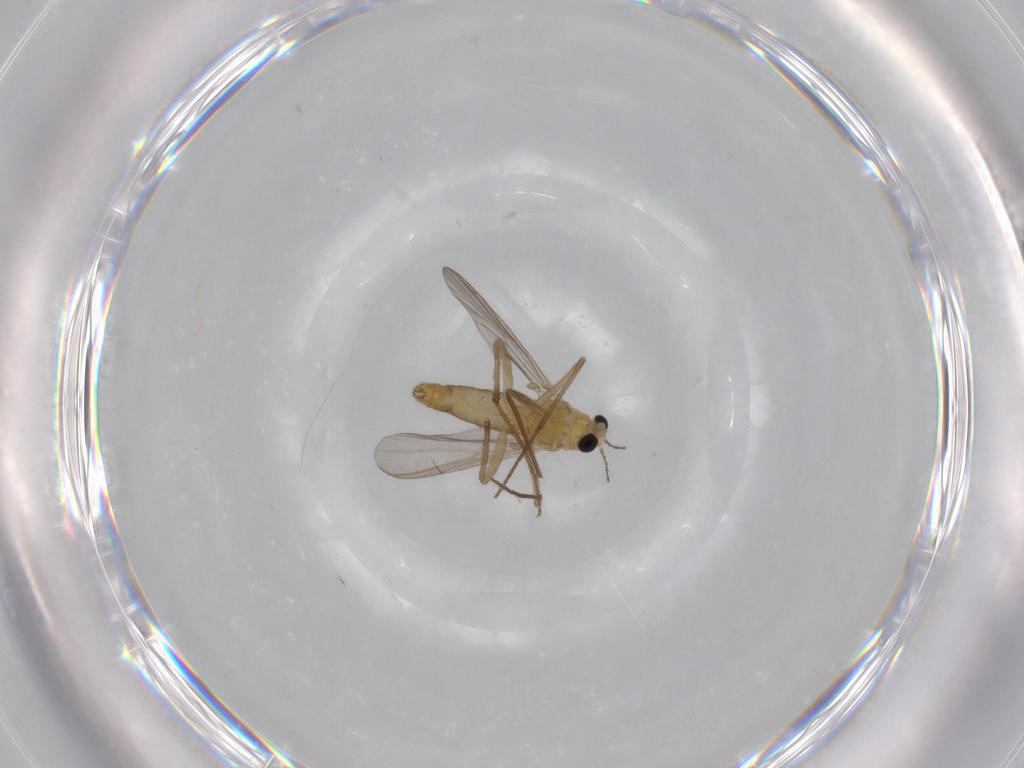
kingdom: Animalia
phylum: Arthropoda
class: Insecta
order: Diptera
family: Chironomidae
